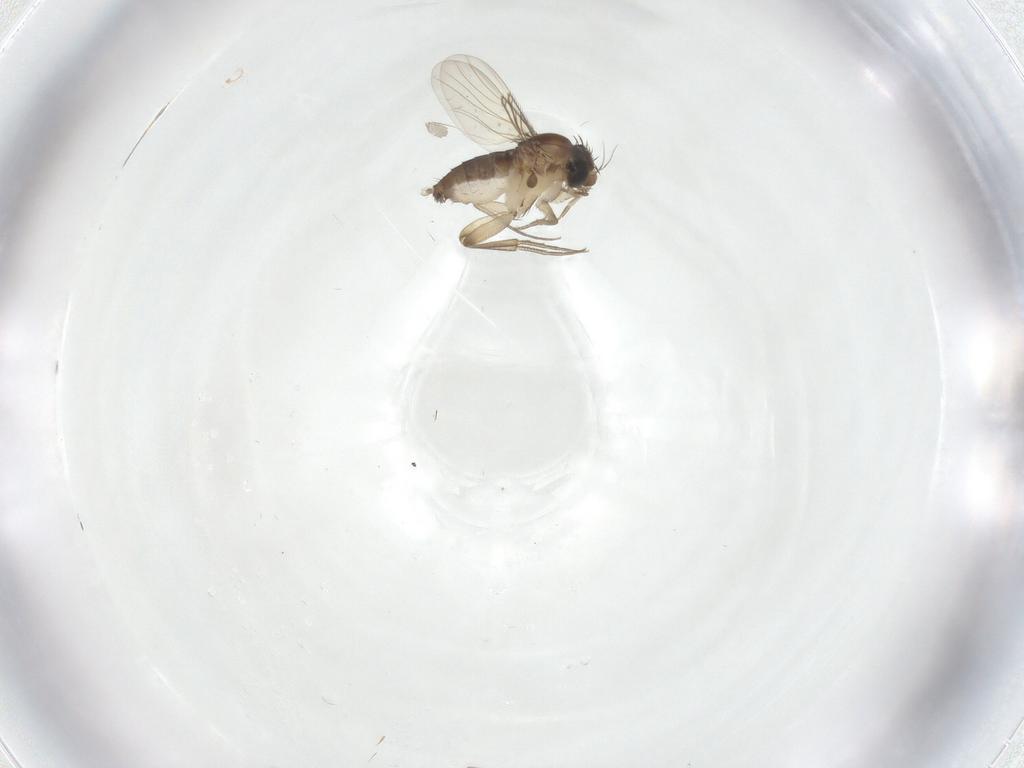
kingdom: Animalia
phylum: Arthropoda
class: Insecta
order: Diptera
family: Phoridae
